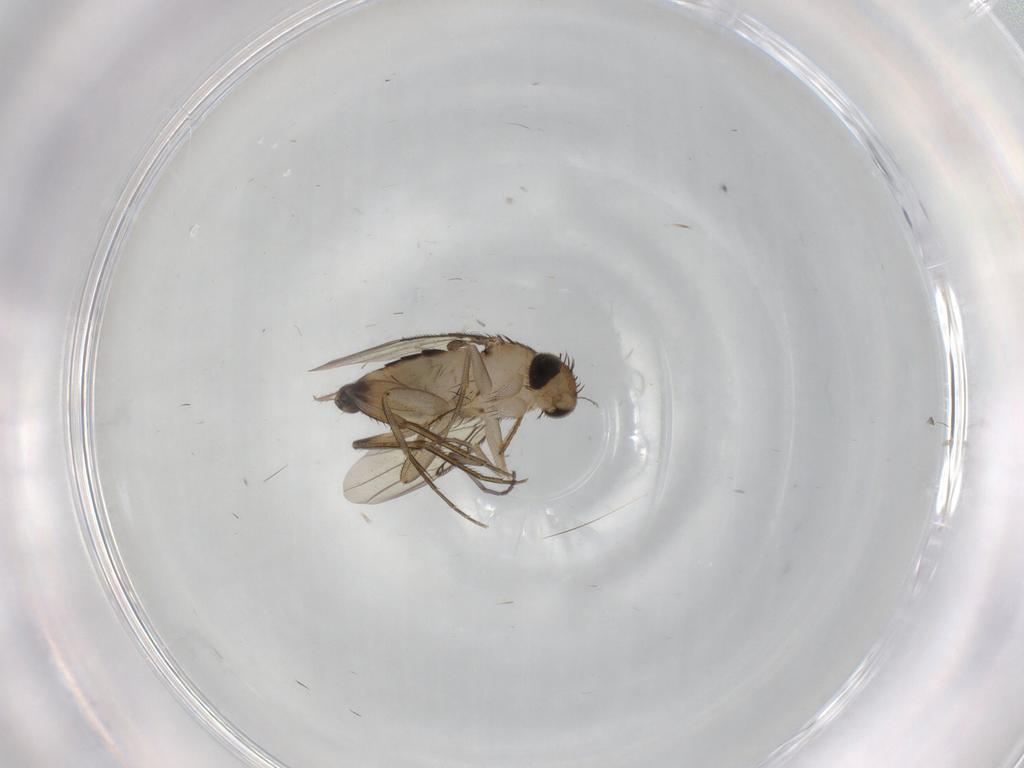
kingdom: Animalia
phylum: Arthropoda
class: Insecta
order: Diptera
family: Phoridae
